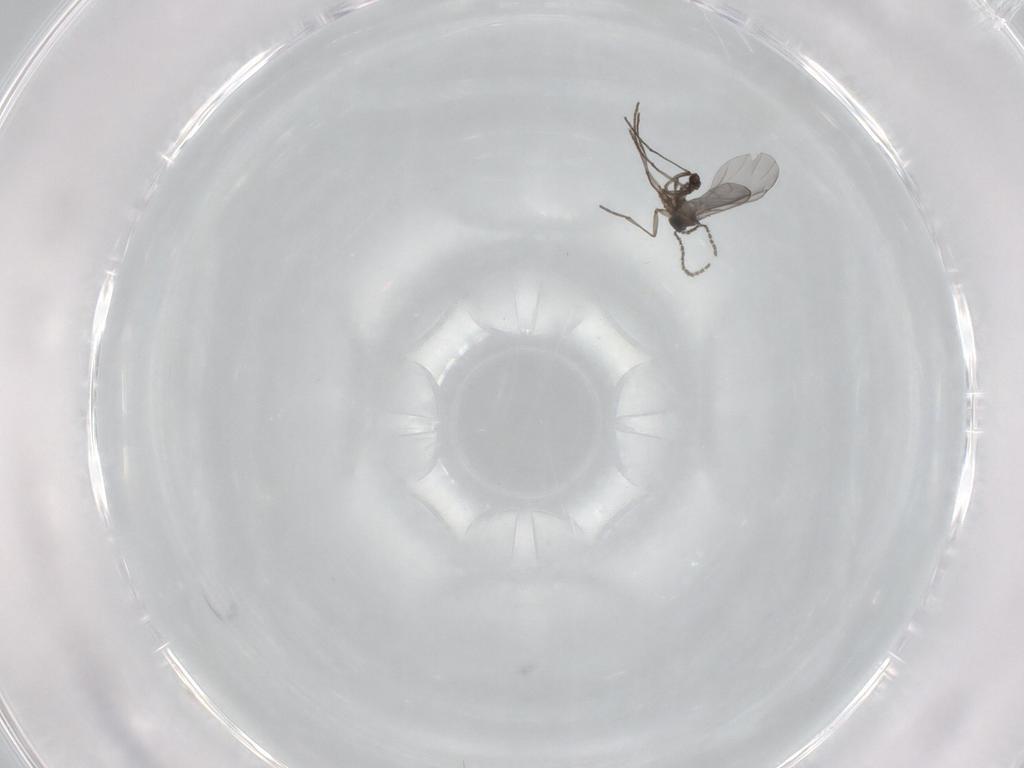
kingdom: Animalia
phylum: Arthropoda
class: Insecta
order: Diptera
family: Sciaridae
